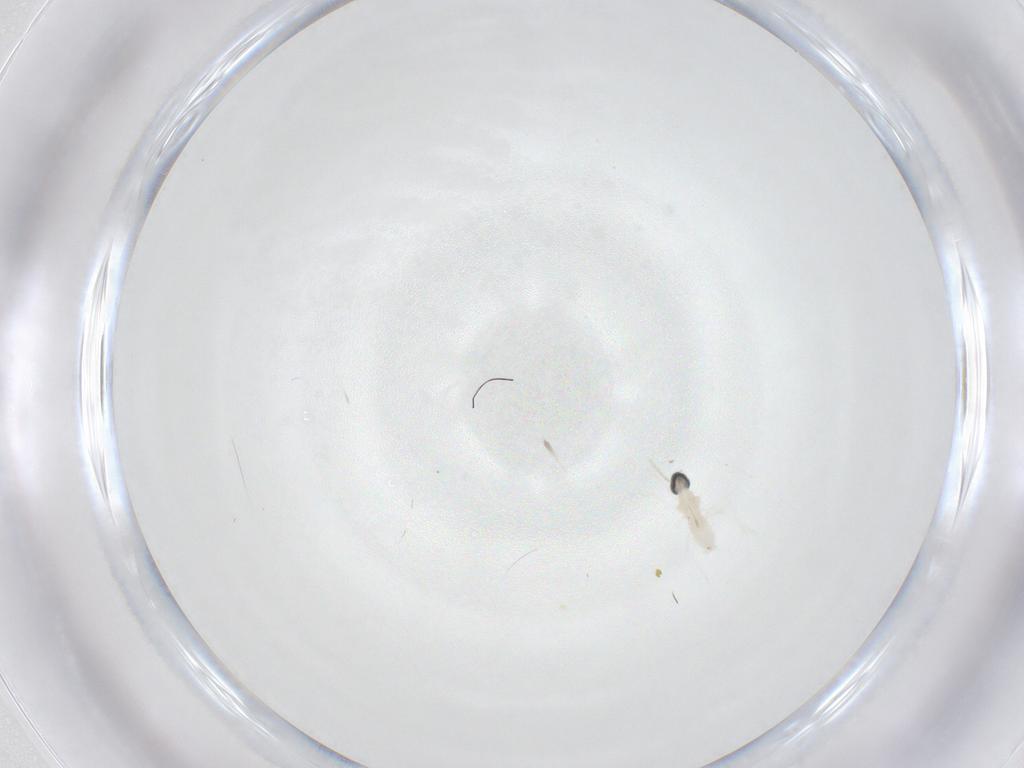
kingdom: Animalia
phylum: Arthropoda
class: Insecta
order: Diptera
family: Cecidomyiidae
